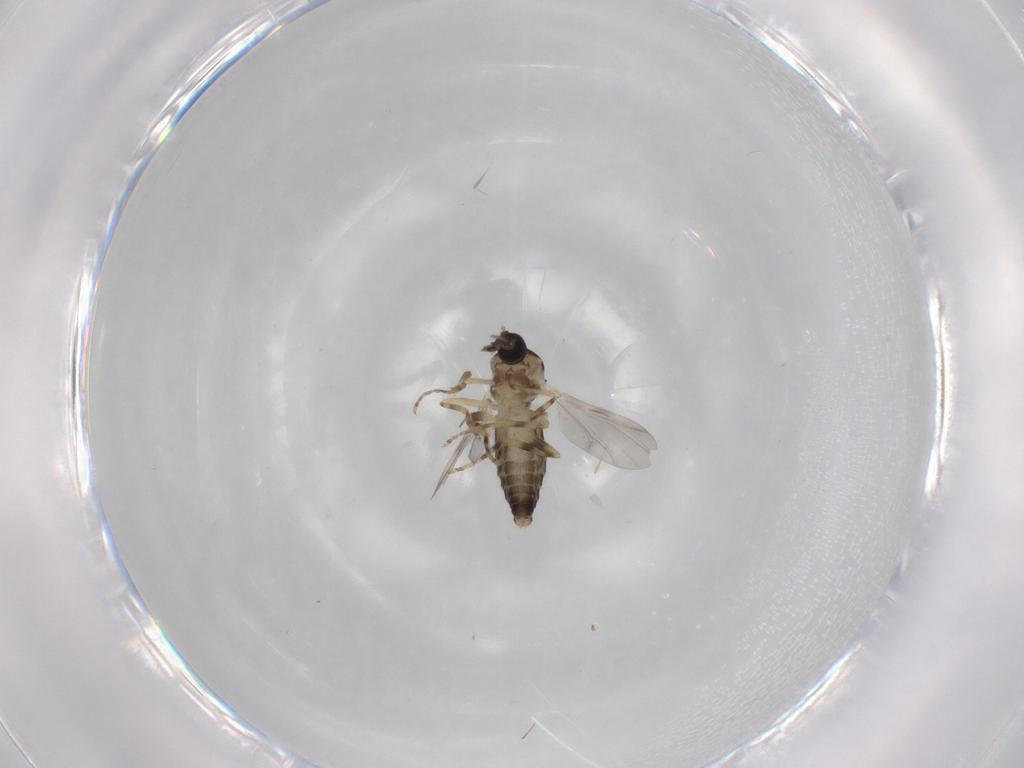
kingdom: Animalia
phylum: Arthropoda
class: Insecta
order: Diptera
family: Ceratopogonidae
